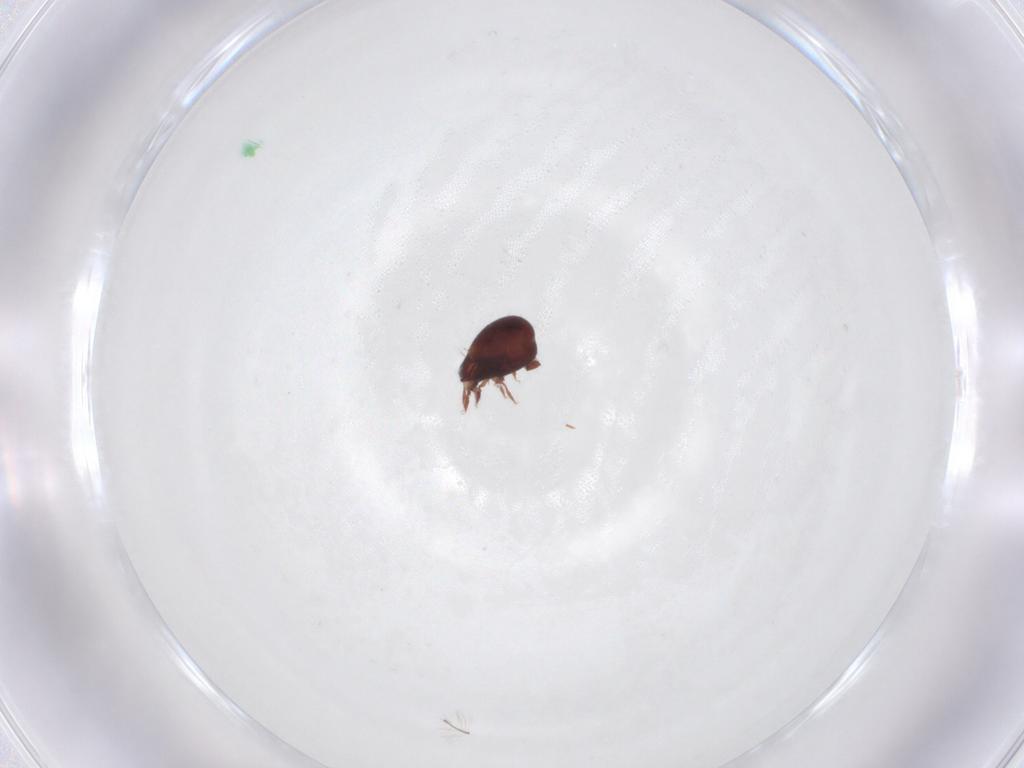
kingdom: Animalia
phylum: Arthropoda
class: Arachnida
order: Sarcoptiformes
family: Humerobatidae
